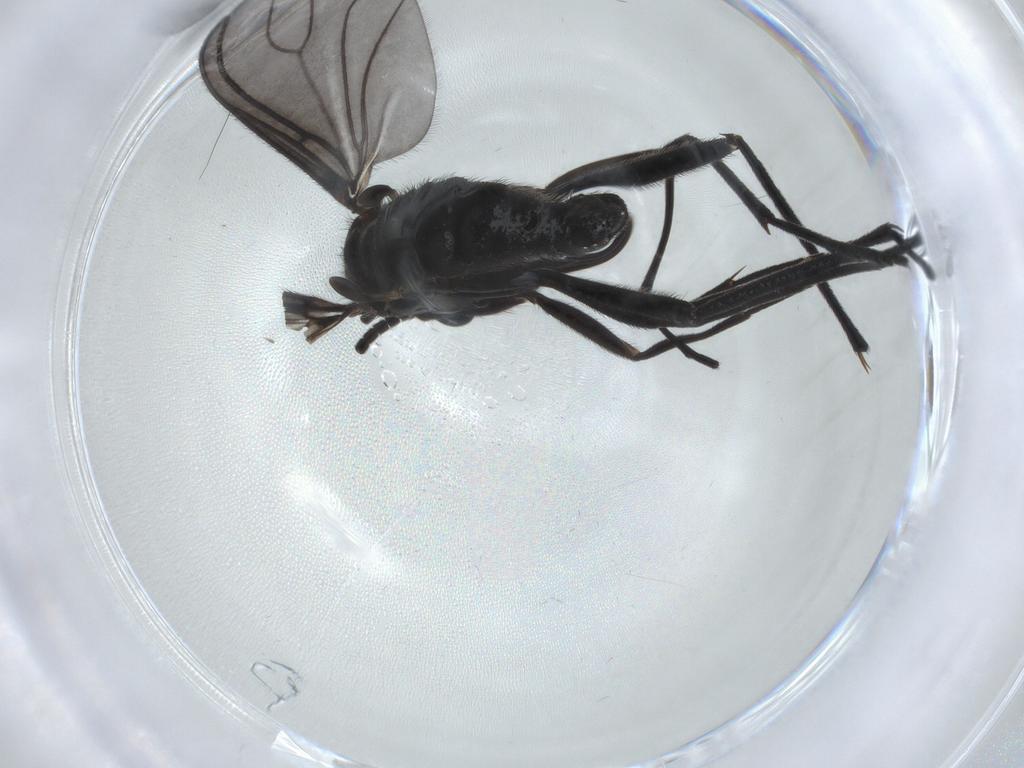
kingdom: Animalia
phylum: Arthropoda
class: Insecta
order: Diptera
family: Sciaridae
